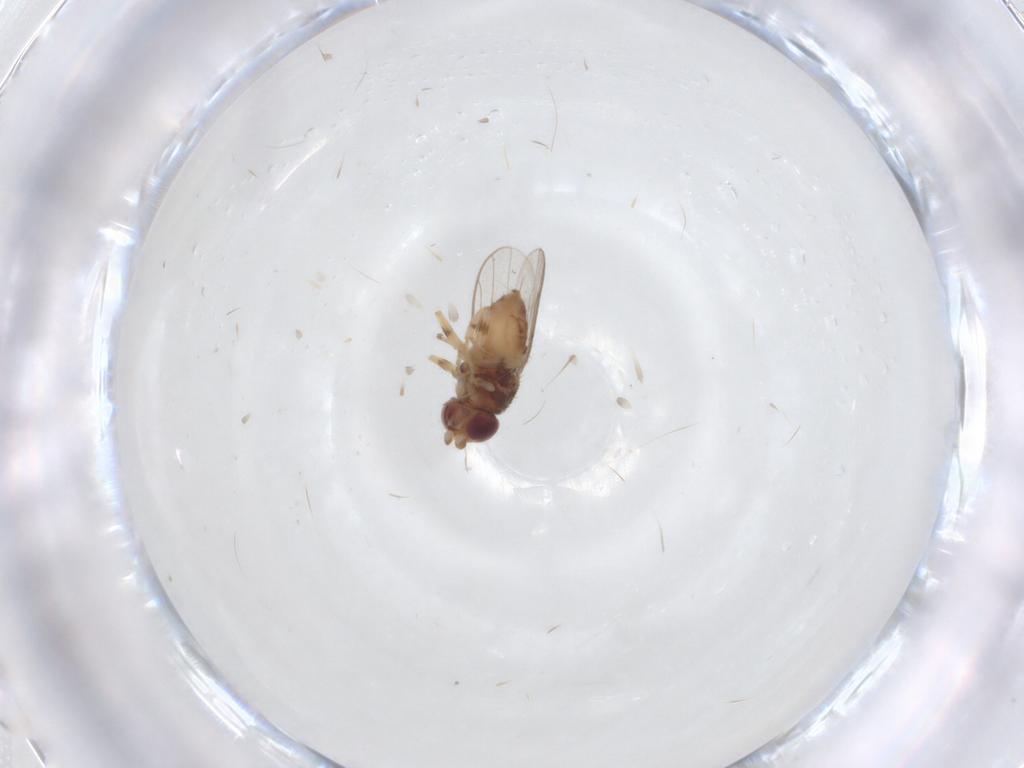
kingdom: Animalia
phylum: Arthropoda
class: Insecta
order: Diptera
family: Chloropidae
